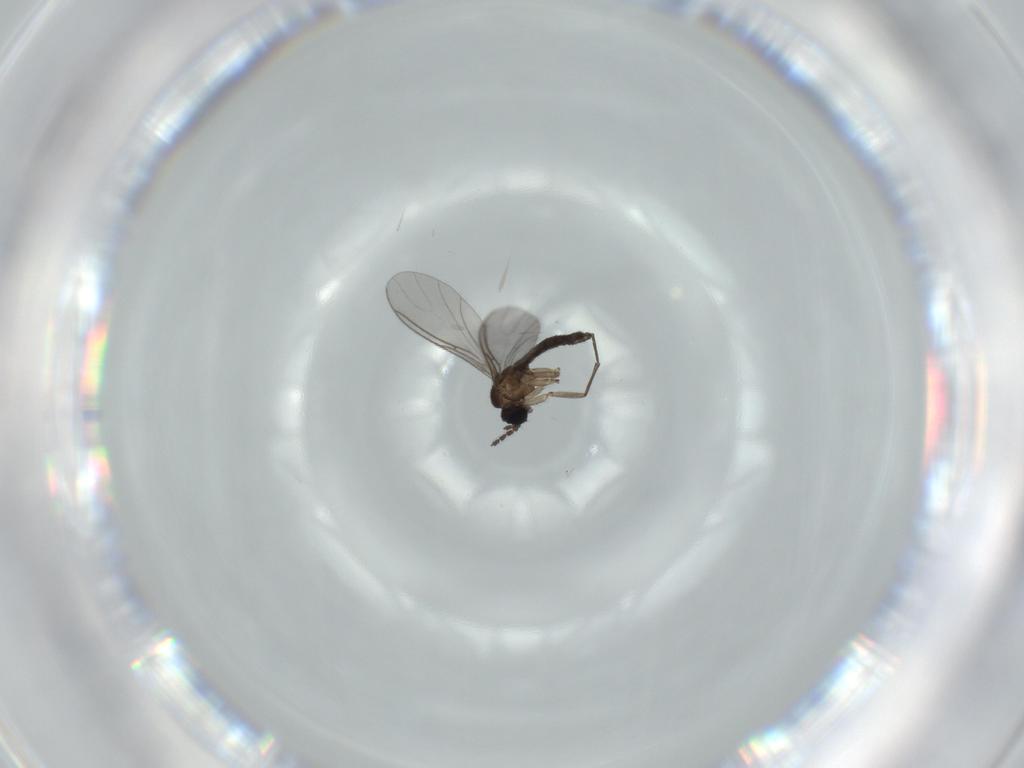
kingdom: Animalia
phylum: Arthropoda
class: Insecta
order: Diptera
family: Sciaridae
